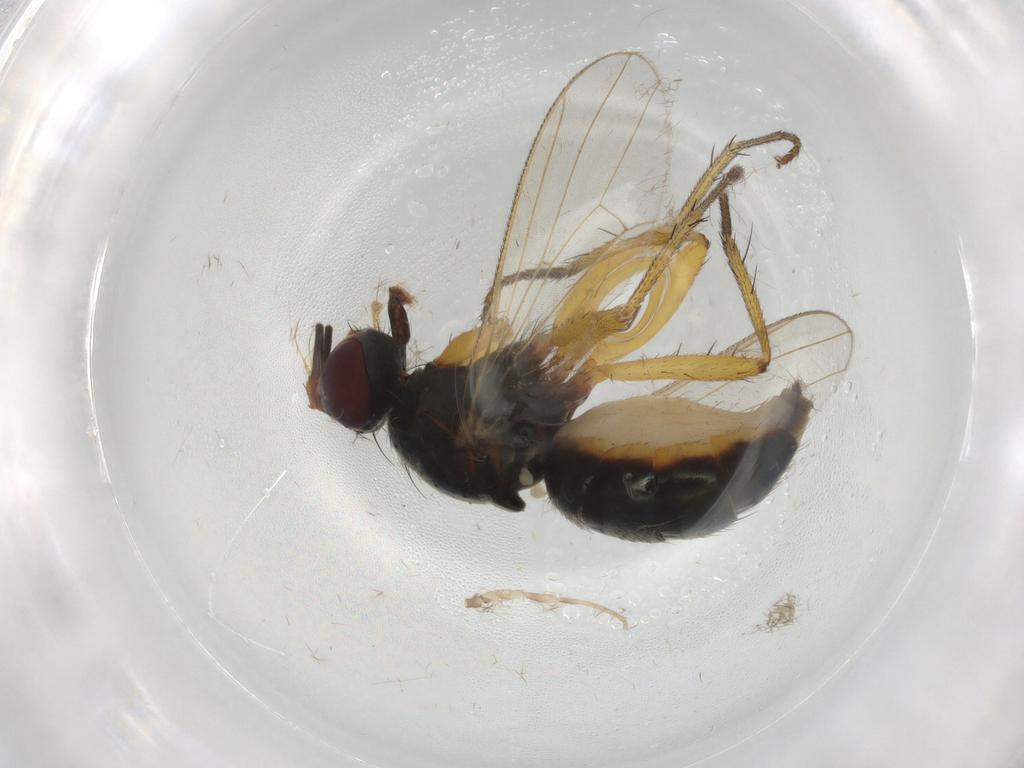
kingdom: Animalia
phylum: Arthropoda
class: Insecta
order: Diptera
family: Chaoboridae
